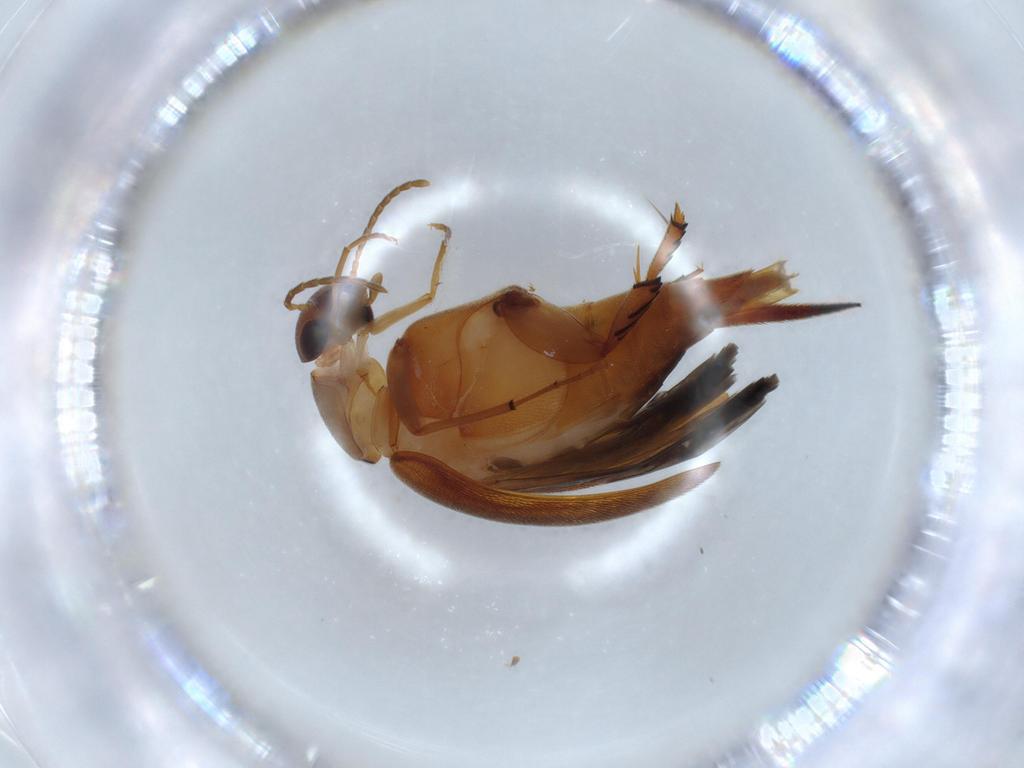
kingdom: Animalia
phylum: Arthropoda
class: Insecta
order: Coleoptera
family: Mordellidae
